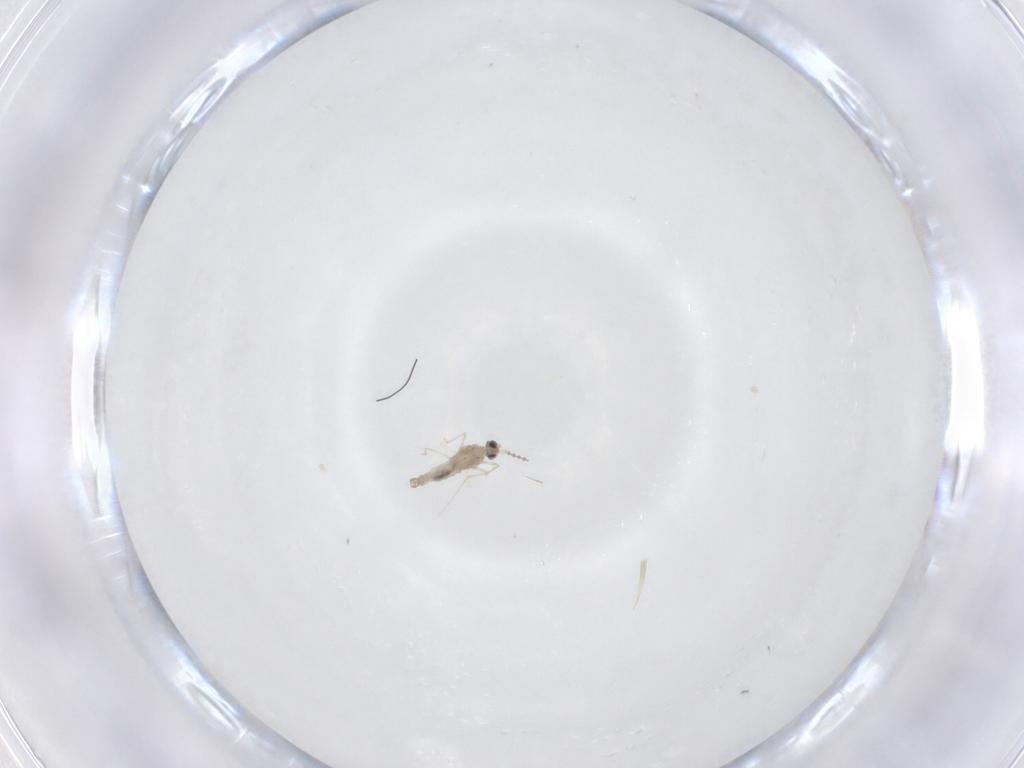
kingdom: Animalia
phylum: Arthropoda
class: Insecta
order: Diptera
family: Cecidomyiidae
